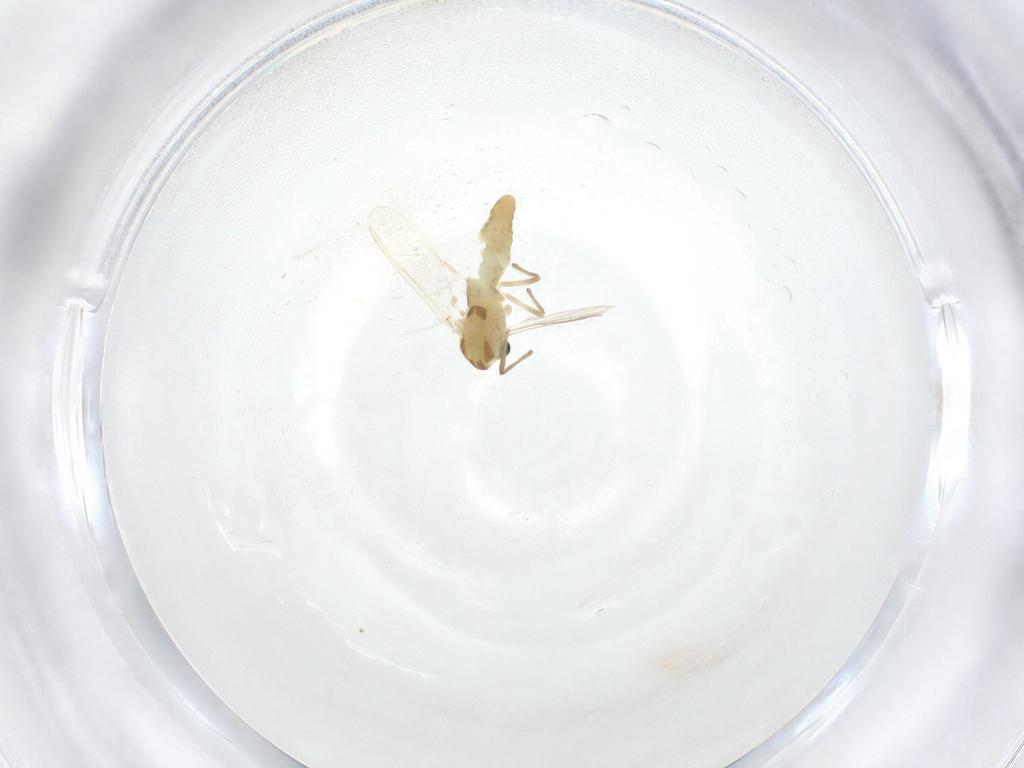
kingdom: Animalia
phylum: Arthropoda
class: Insecta
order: Diptera
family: Chironomidae
